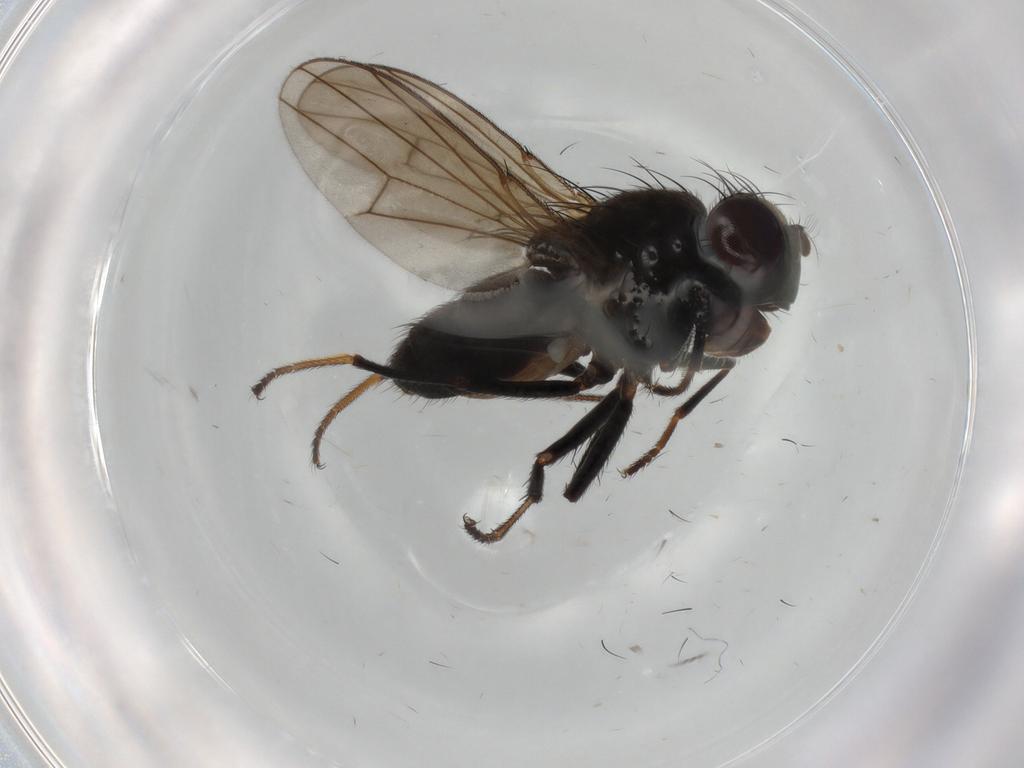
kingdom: Animalia
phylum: Arthropoda
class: Insecta
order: Diptera
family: Ephydridae
